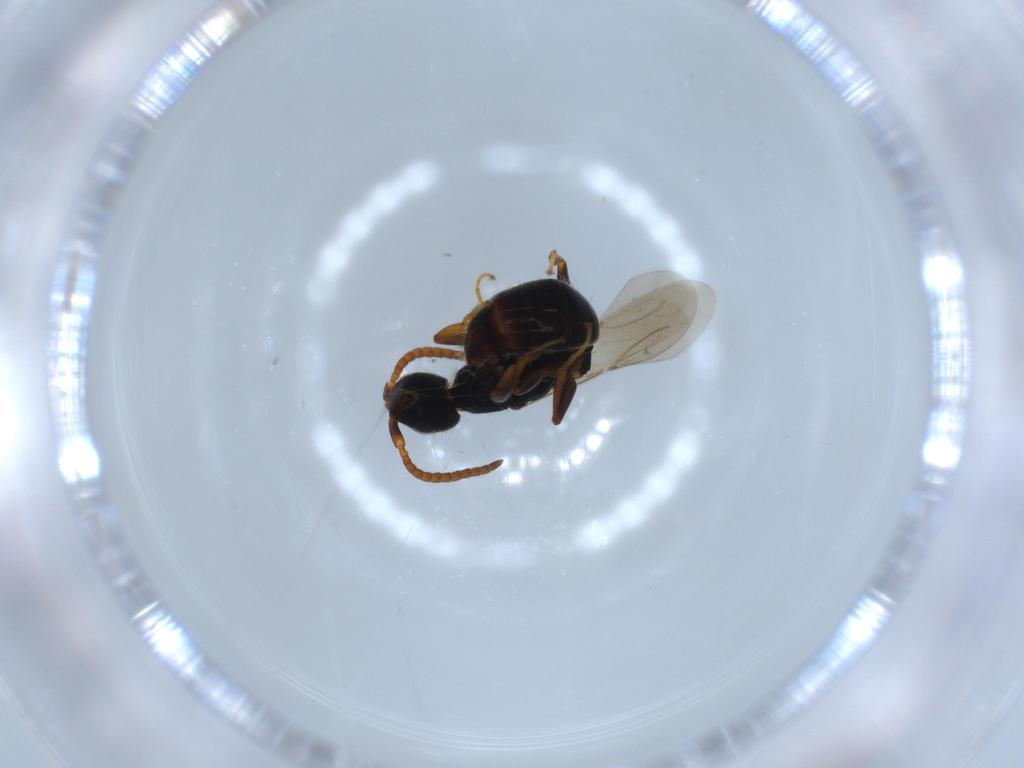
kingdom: Animalia
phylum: Arthropoda
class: Insecta
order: Hymenoptera
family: Bethylidae
